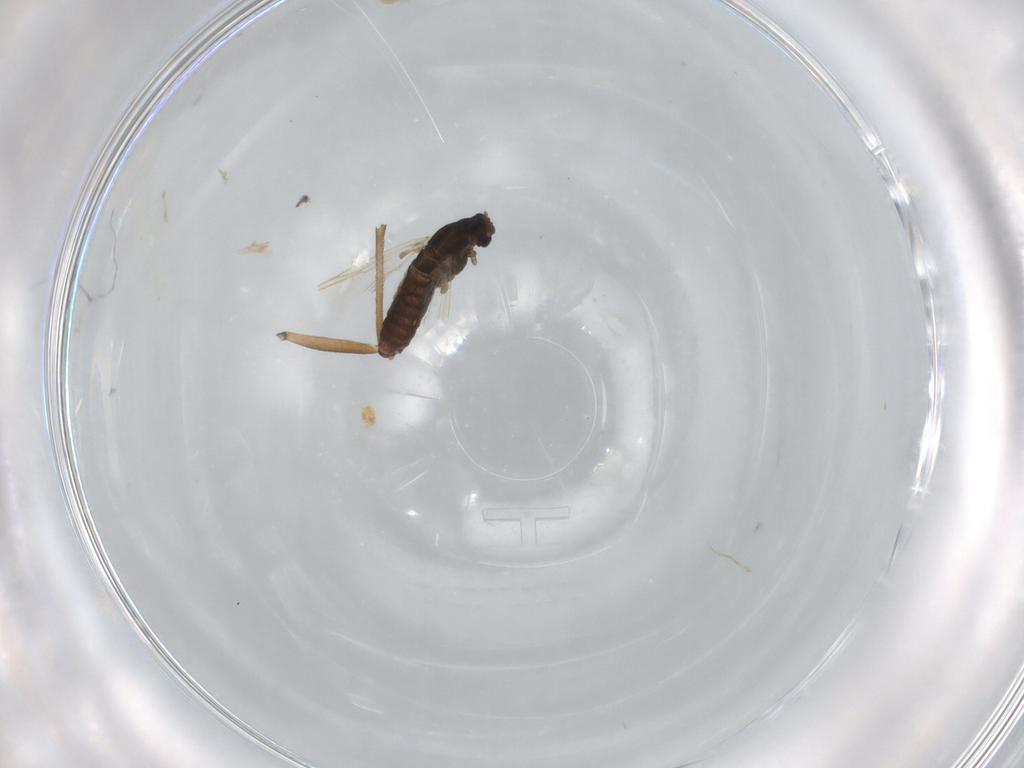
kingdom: Animalia
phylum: Arthropoda
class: Insecta
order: Diptera
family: Chironomidae
